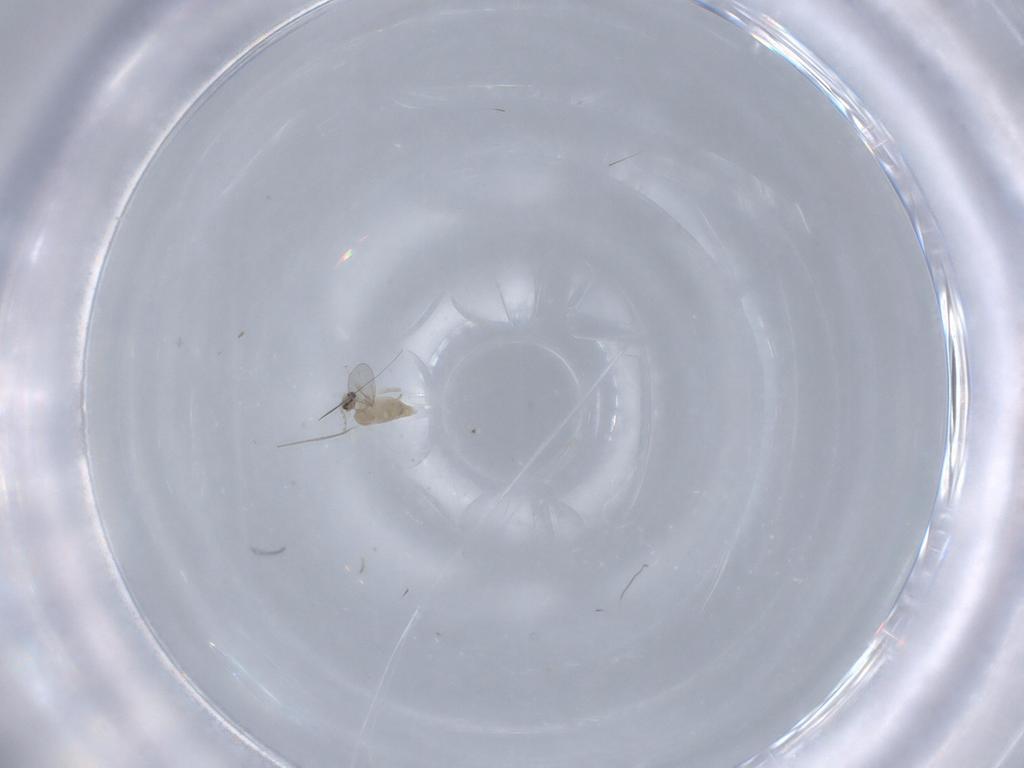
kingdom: Animalia
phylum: Arthropoda
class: Insecta
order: Diptera
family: Cecidomyiidae
